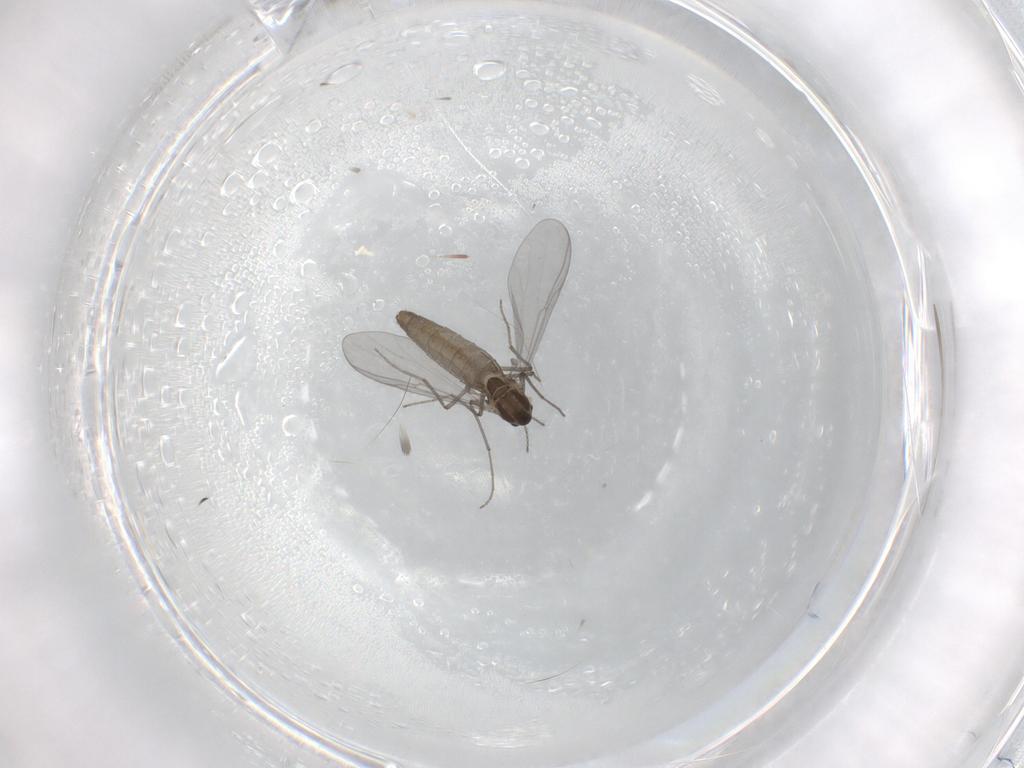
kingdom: Animalia
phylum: Arthropoda
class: Insecta
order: Diptera
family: Chironomidae
